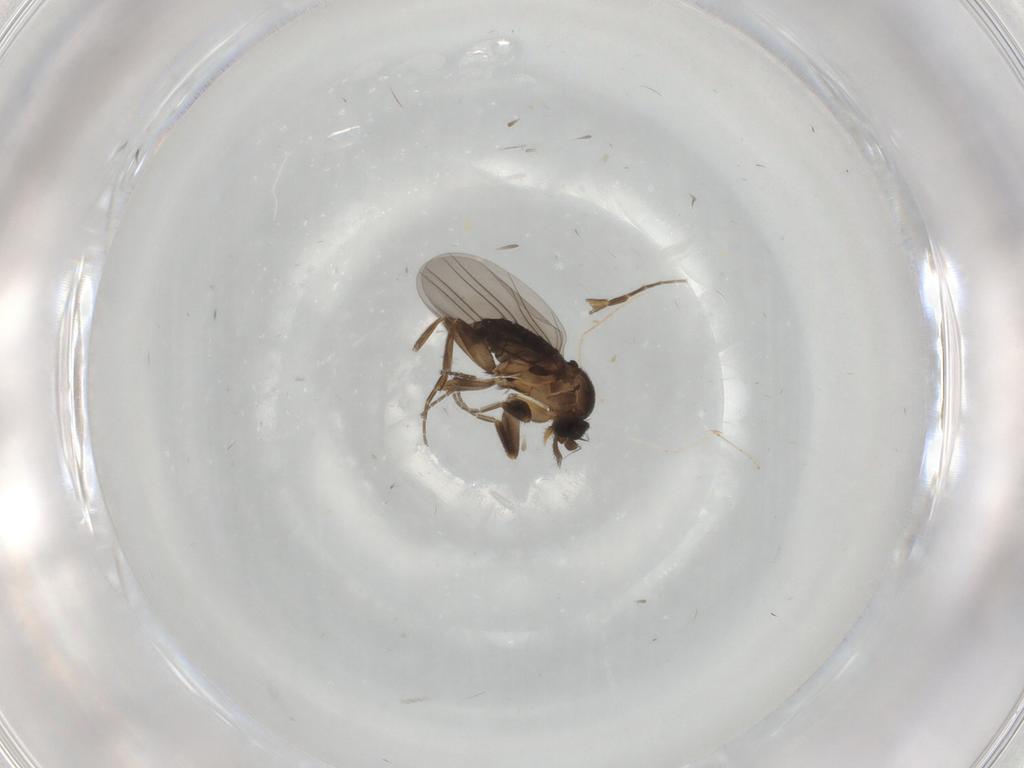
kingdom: Animalia
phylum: Arthropoda
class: Insecta
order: Diptera
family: Cecidomyiidae
